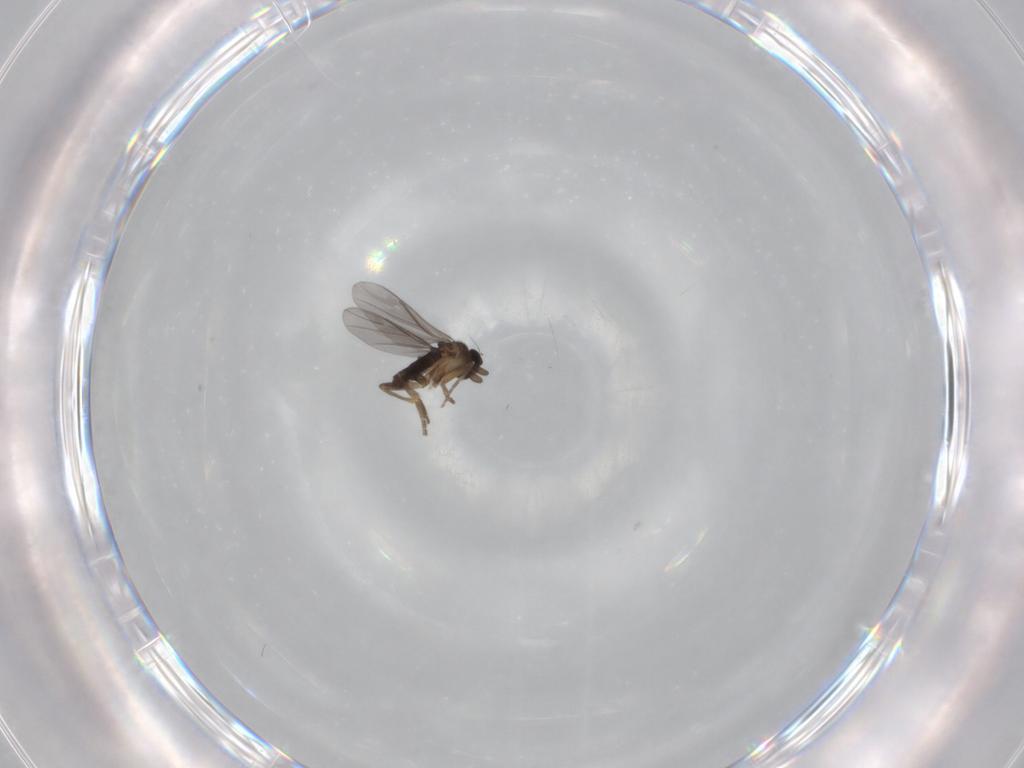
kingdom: Animalia
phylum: Arthropoda
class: Insecta
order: Diptera
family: Phoridae
